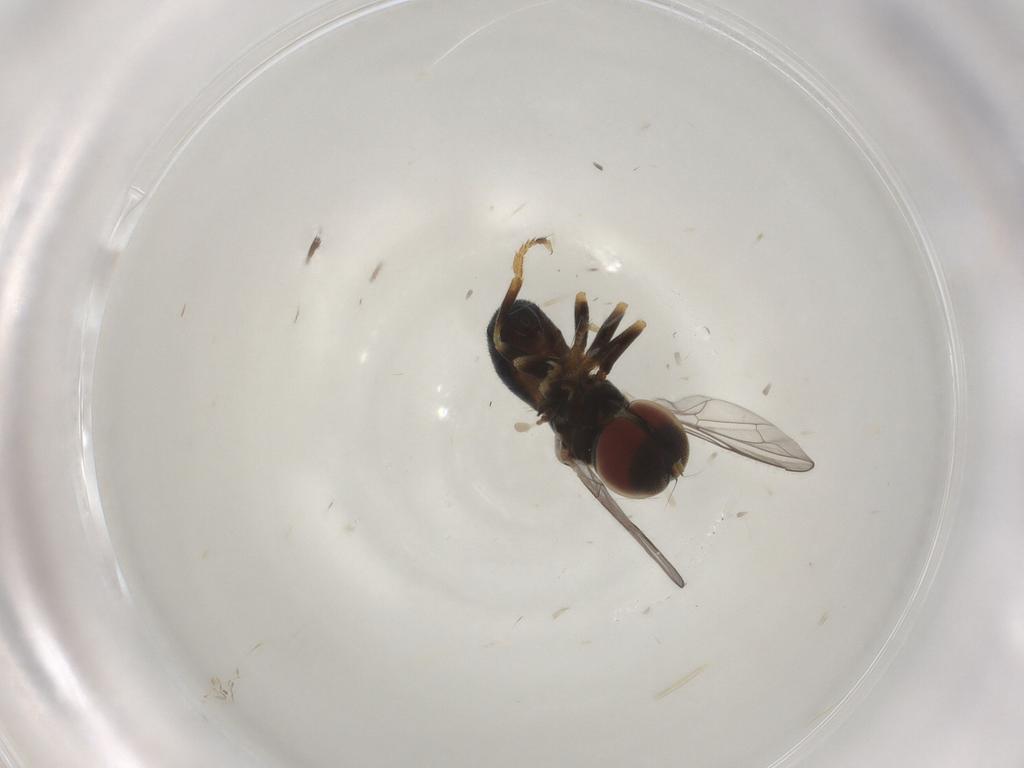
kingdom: Animalia
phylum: Arthropoda
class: Insecta
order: Diptera
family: Pipunculidae
